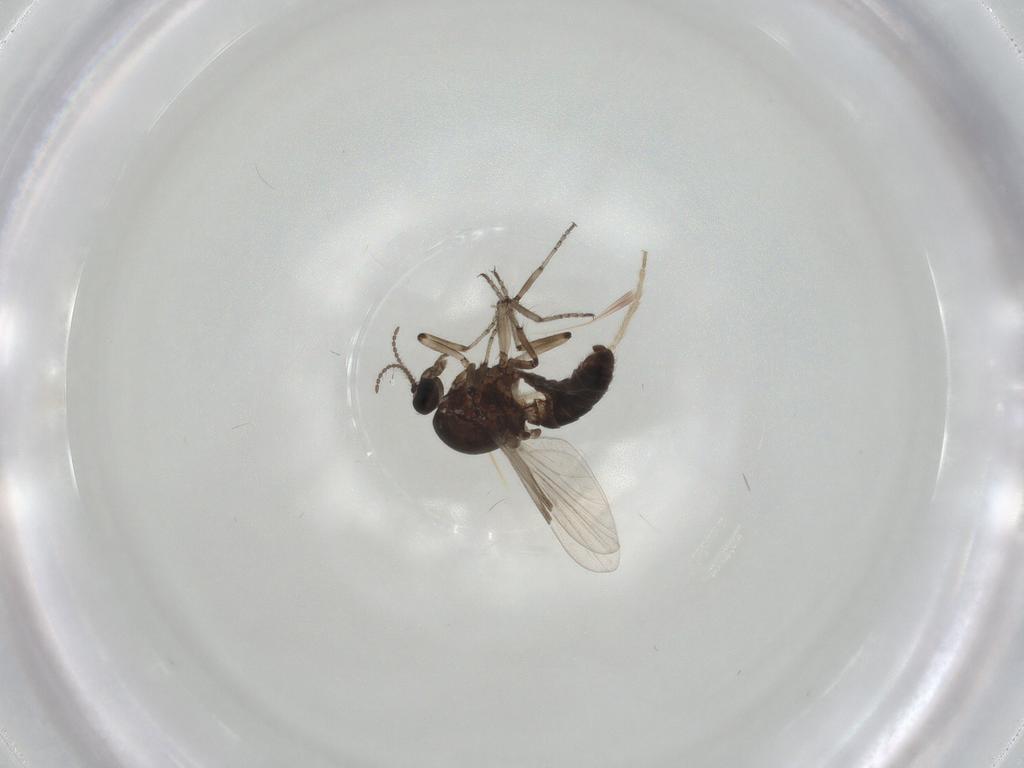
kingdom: Animalia
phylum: Arthropoda
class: Insecta
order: Diptera
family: Ceratopogonidae
